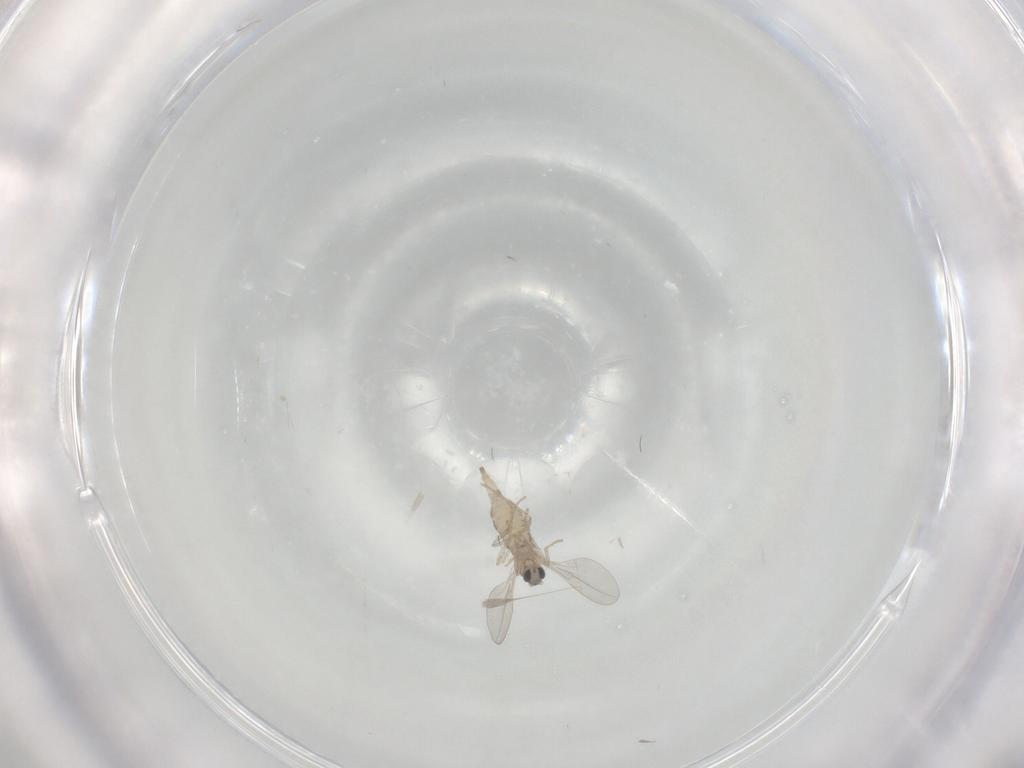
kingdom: Animalia
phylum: Arthropoda
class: Insecta
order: Diptera
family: Cecidomyiidae
